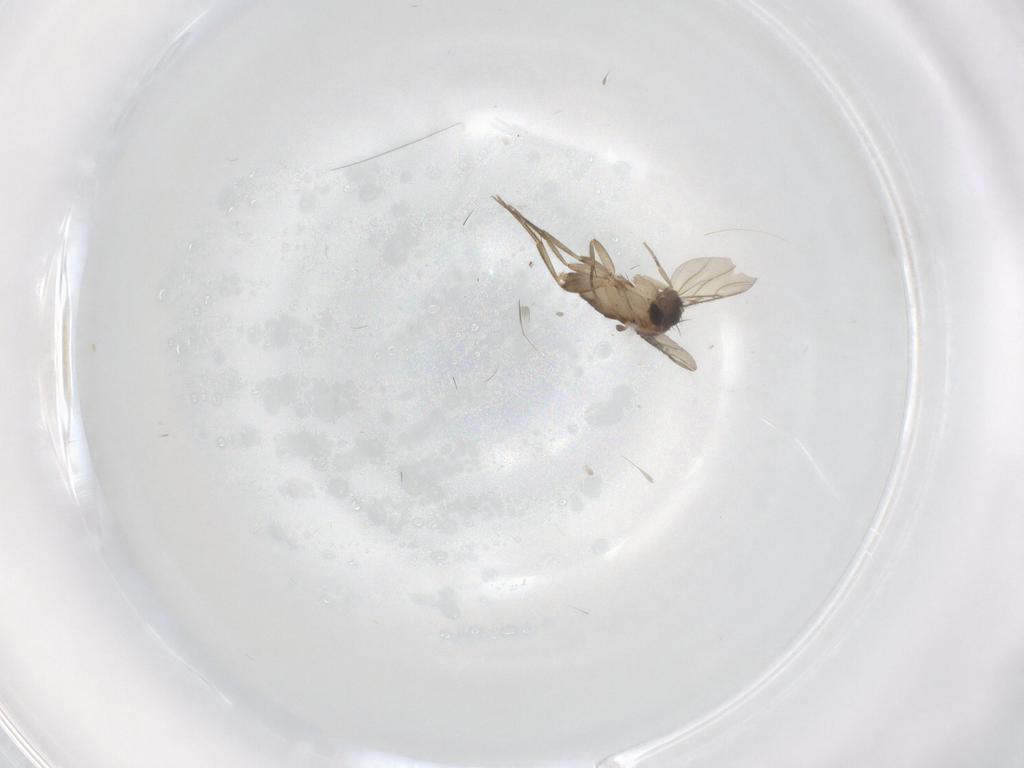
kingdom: Animalia
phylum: Arthropoda
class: Insecta
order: Diptera
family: Phoridae
